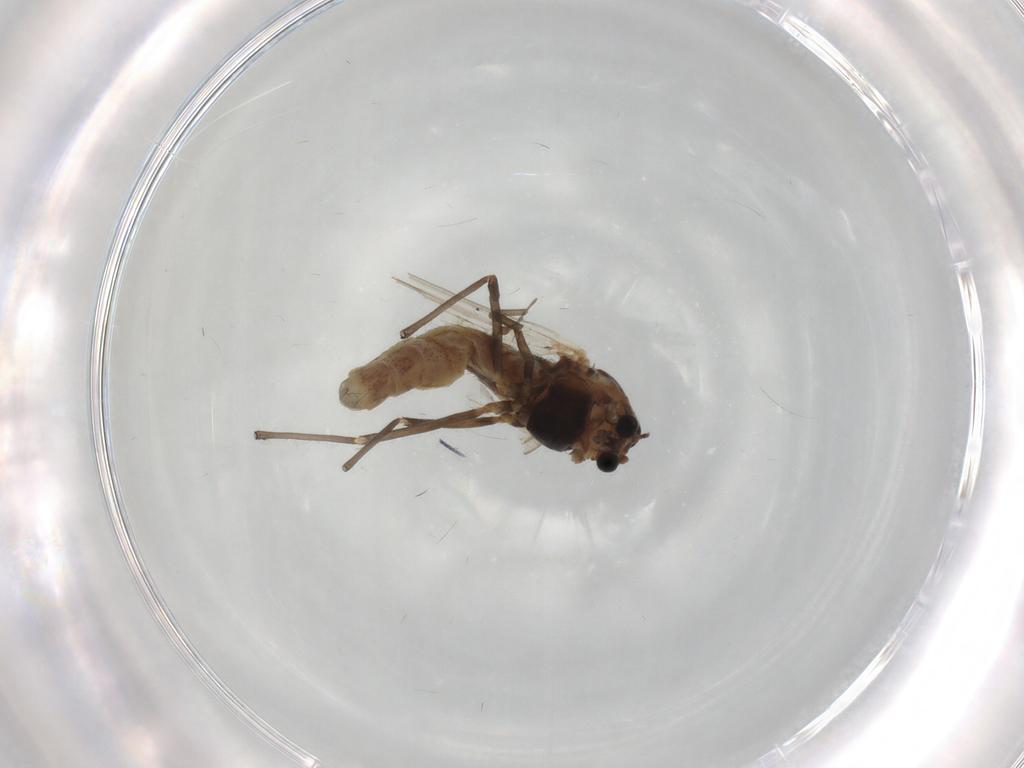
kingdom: Animalia
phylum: Arthropoda
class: Insecta
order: Diptera
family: Chironomidae
